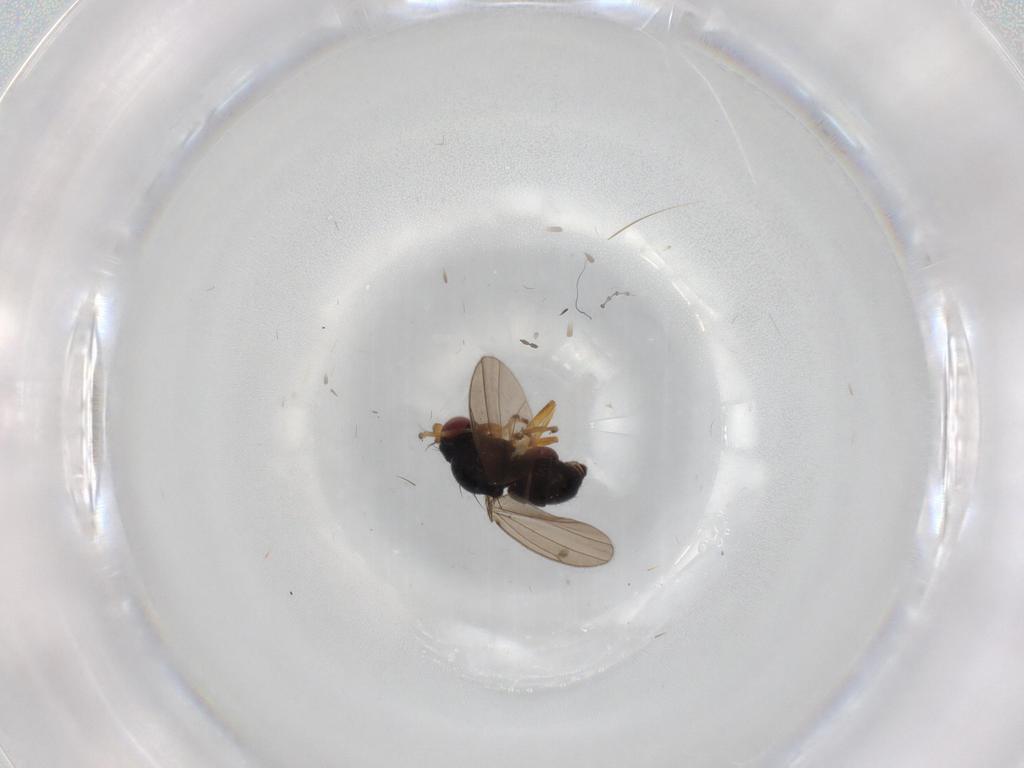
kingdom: Animalia
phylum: Arthropoda
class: Insecta
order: Diptera
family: Ephydridae
